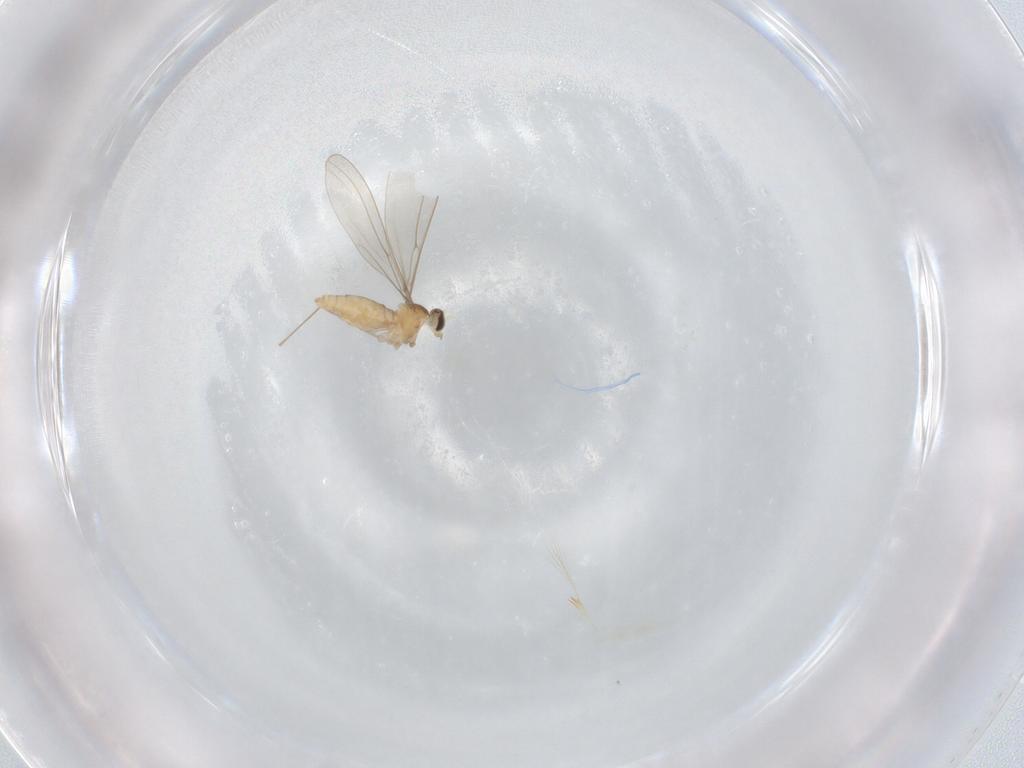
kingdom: Animalia
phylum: Arthropoda
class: Insecta
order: Diptera
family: Cecidomyiidae
